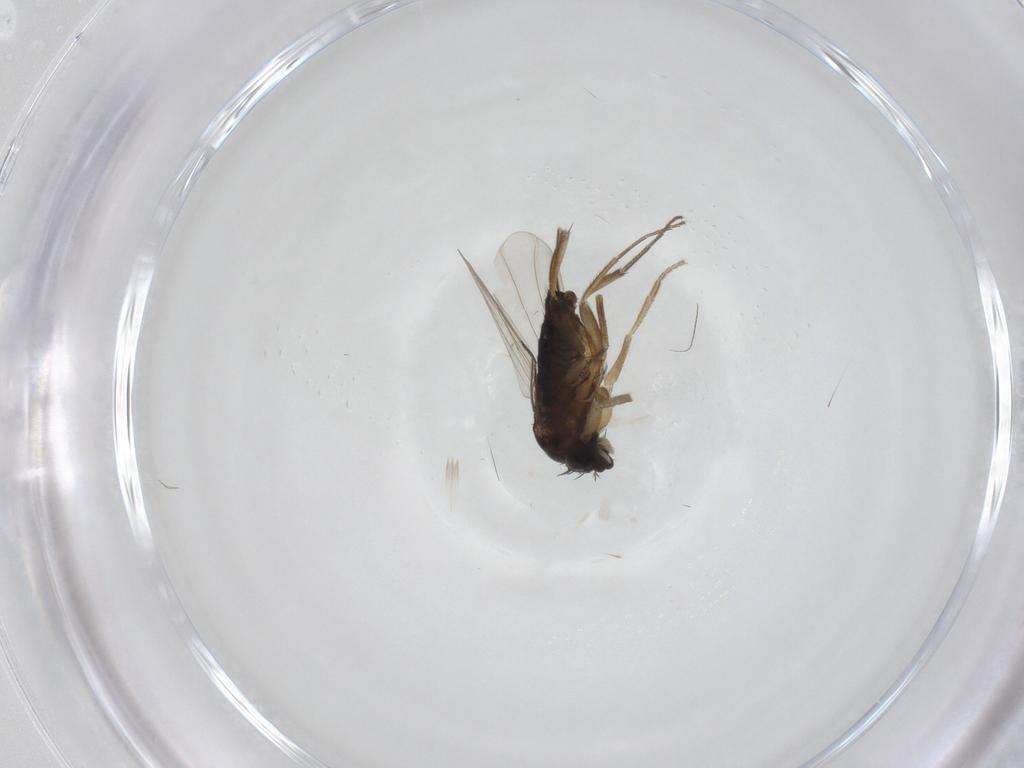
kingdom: Animalia
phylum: Arthropoda
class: Insecta
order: Diptera
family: Phoridae
